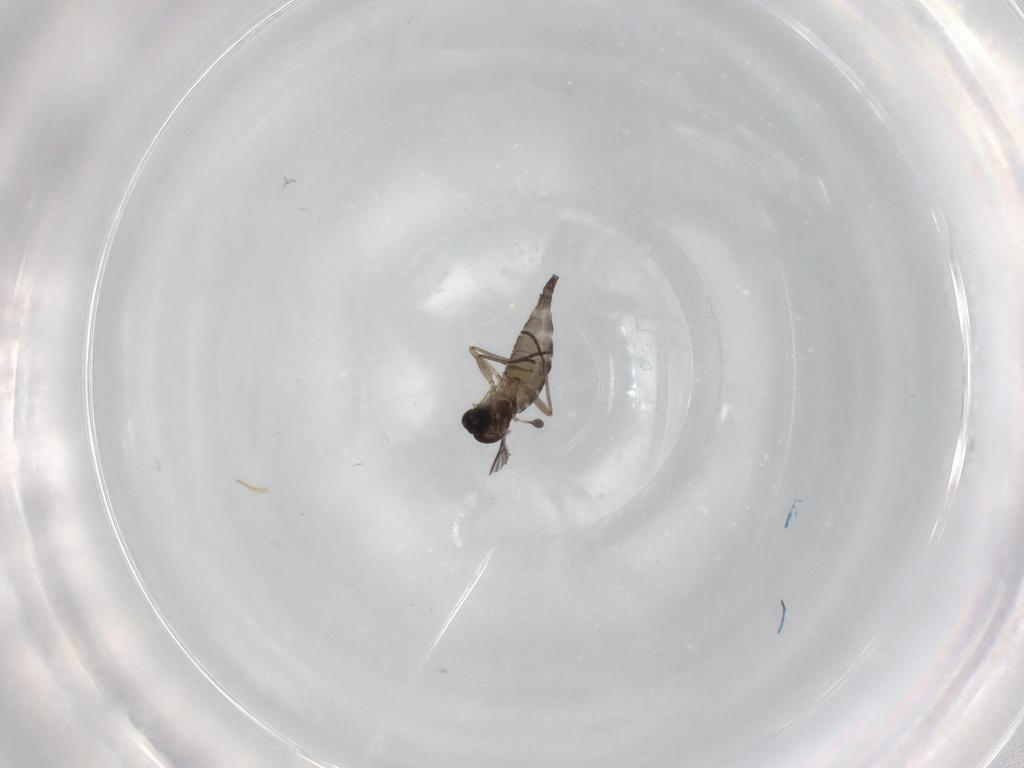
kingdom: Animalia
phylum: Arthropoda
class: Insecta
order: Diptera
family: Sciaridae
